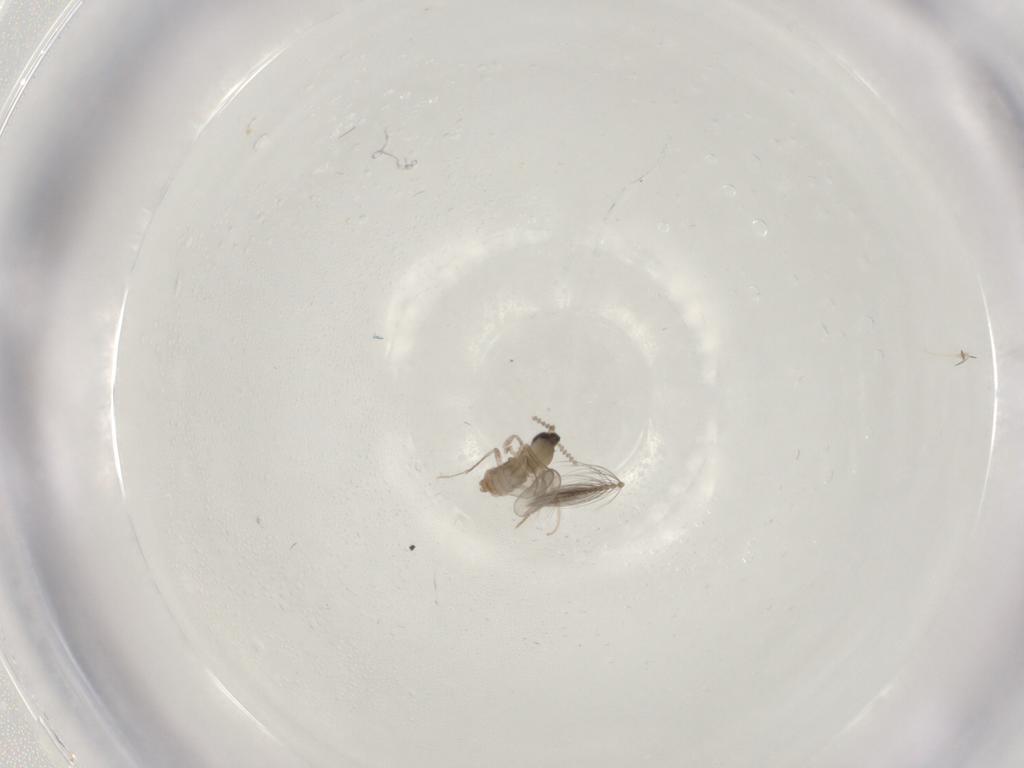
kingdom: Animalia
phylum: Arthropoda
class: Insecta
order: Diptera
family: Cecidomyiidae
